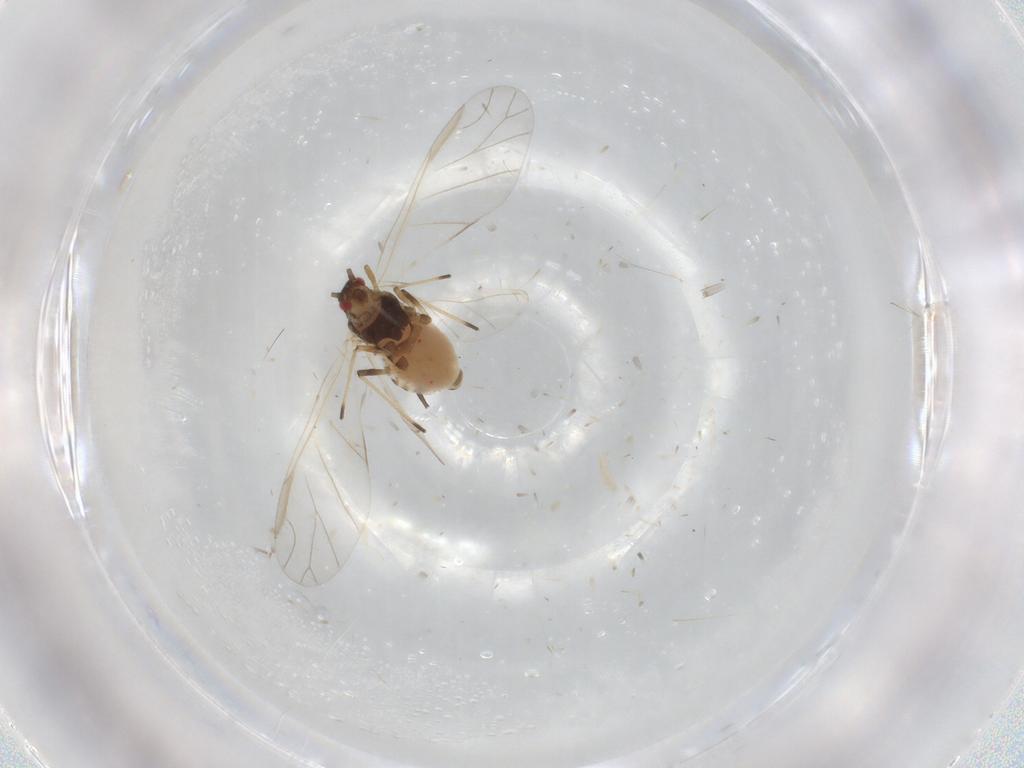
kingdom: Animalia
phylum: Arthropoda
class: Insecta
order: Hemiptera
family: Aphididae
